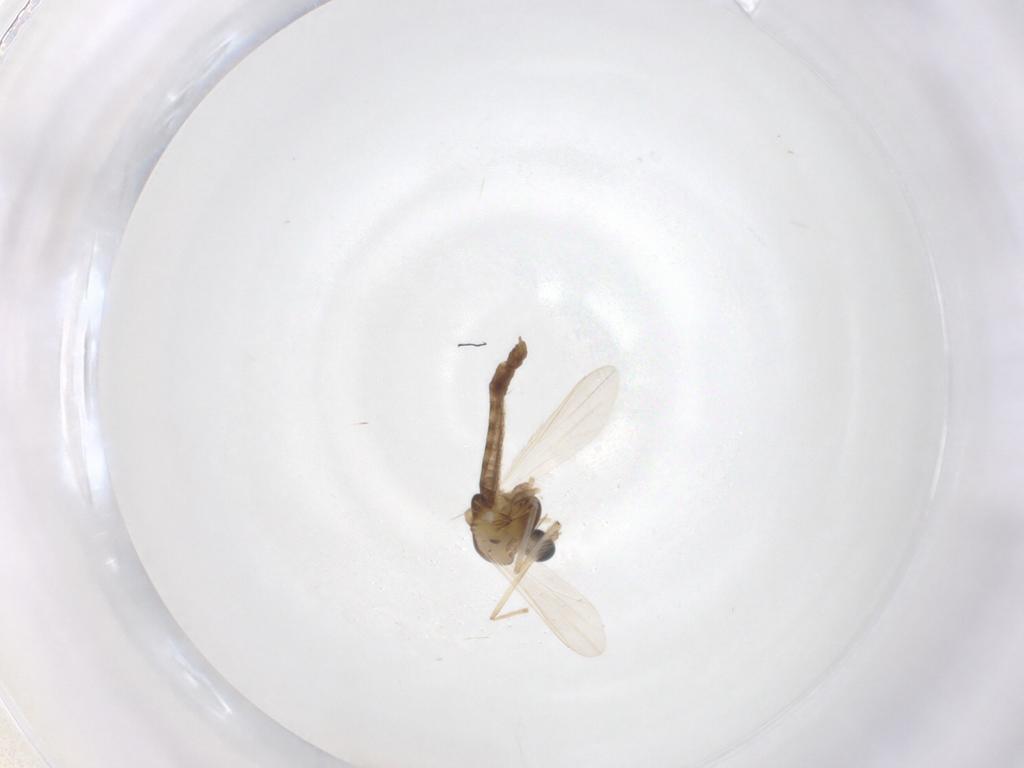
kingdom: Animalia
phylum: Arthropoda
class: Insecta
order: Diptera
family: Chironomidae
